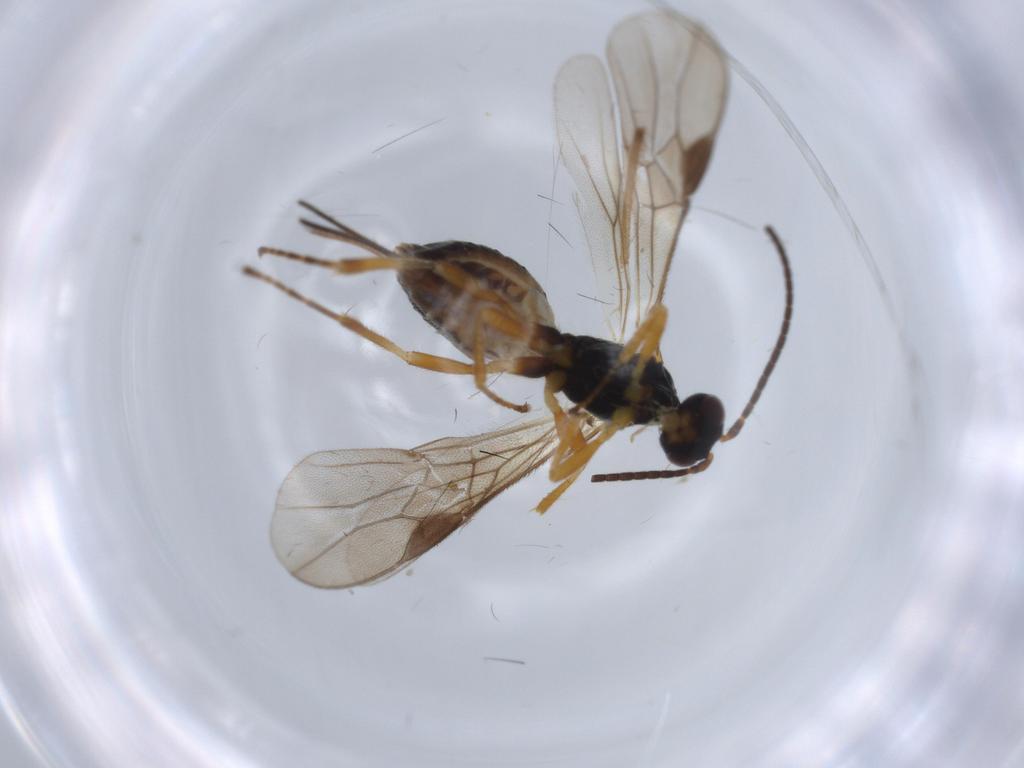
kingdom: Animalia
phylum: Arthropoda
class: Insecta
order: Hymenoptera
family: Braconidae
